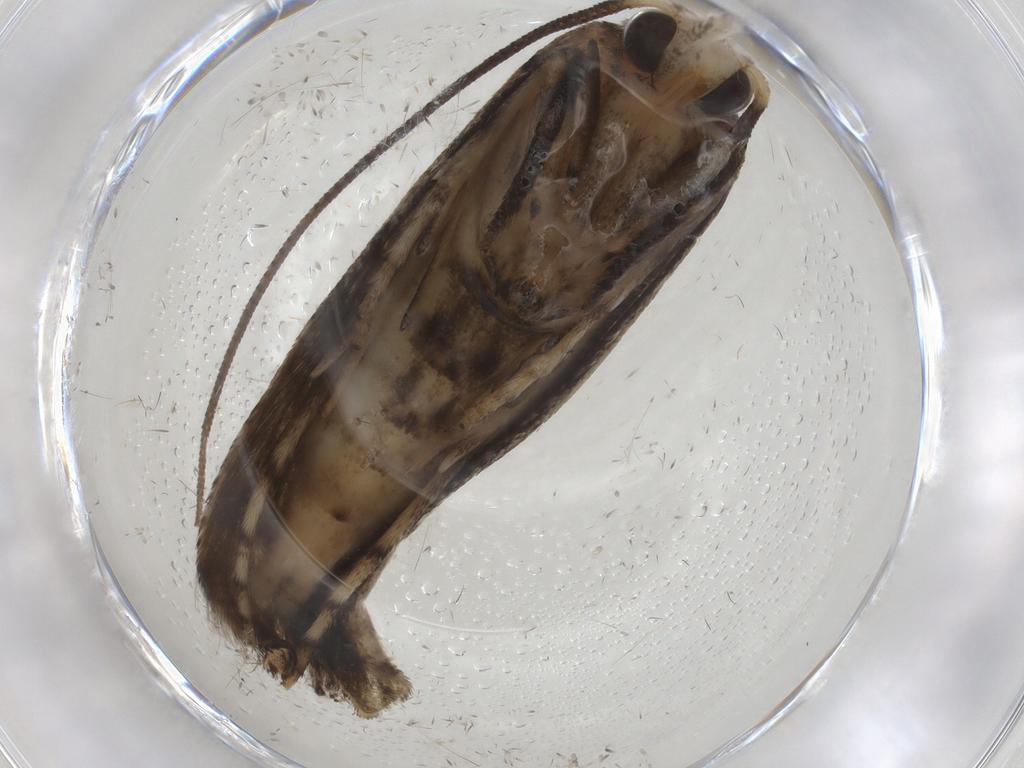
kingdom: Animalia
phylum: Arthropoda
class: Insecta
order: Lepidoptera
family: Yponomeutidae
